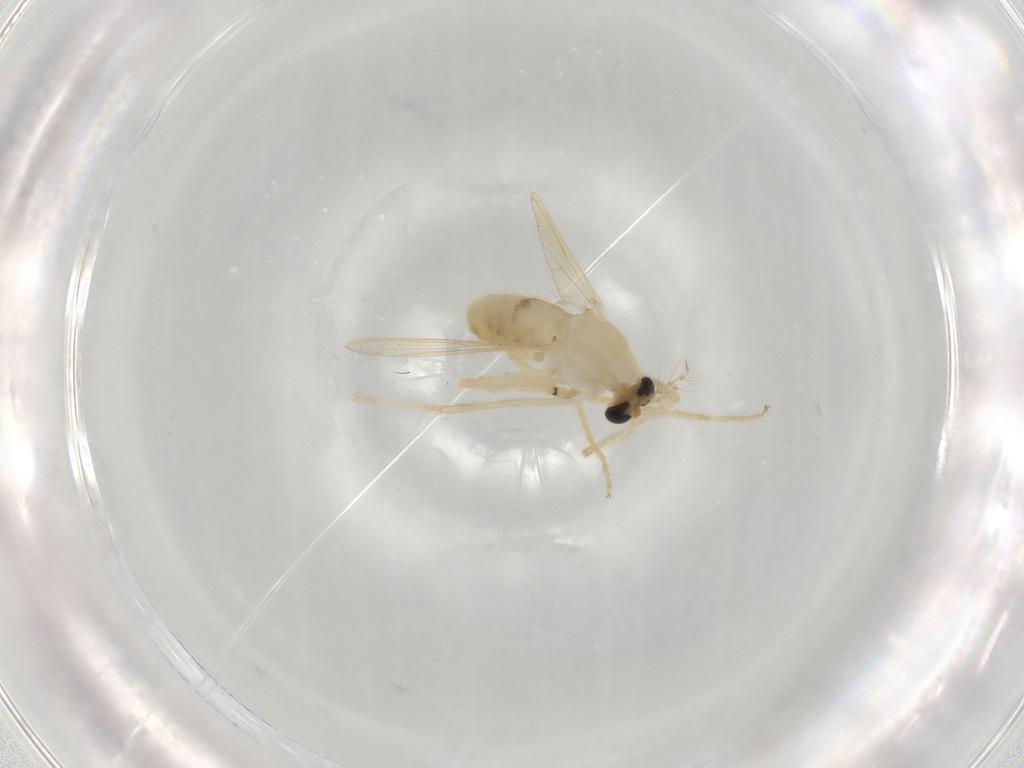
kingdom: Animalia
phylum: Arthropoda
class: Insecta
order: Diptera
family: Chironomidae
